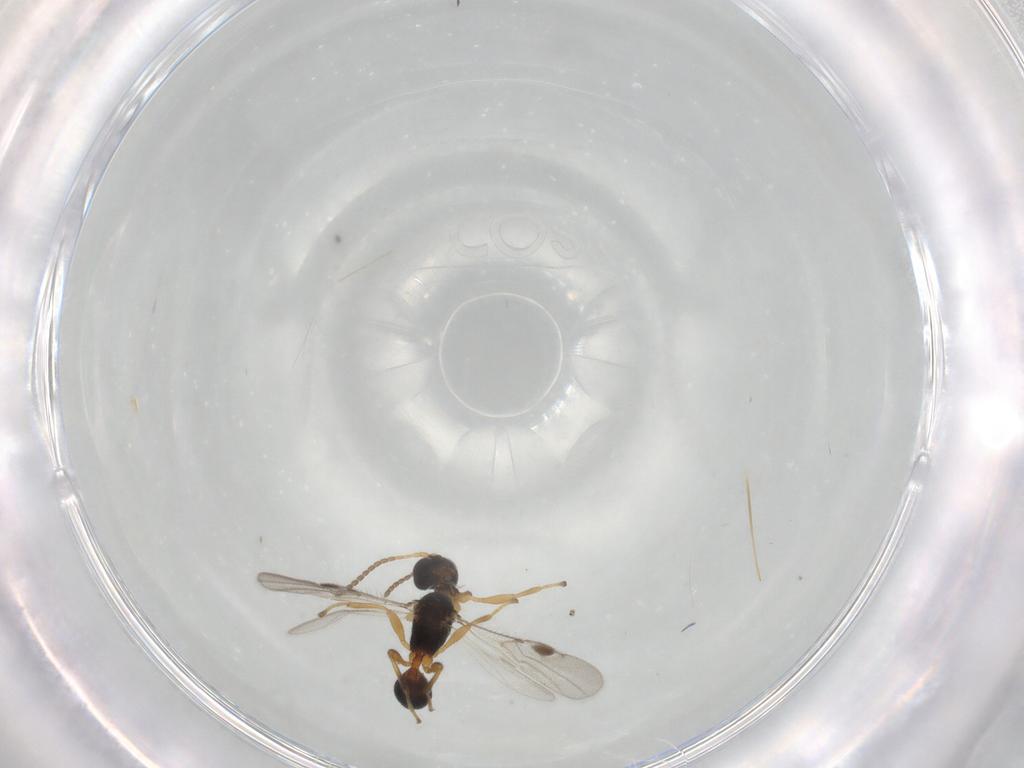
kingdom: Animalia
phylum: Arthropoda
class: Insecta
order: Hymenoptera
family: Braconidae
